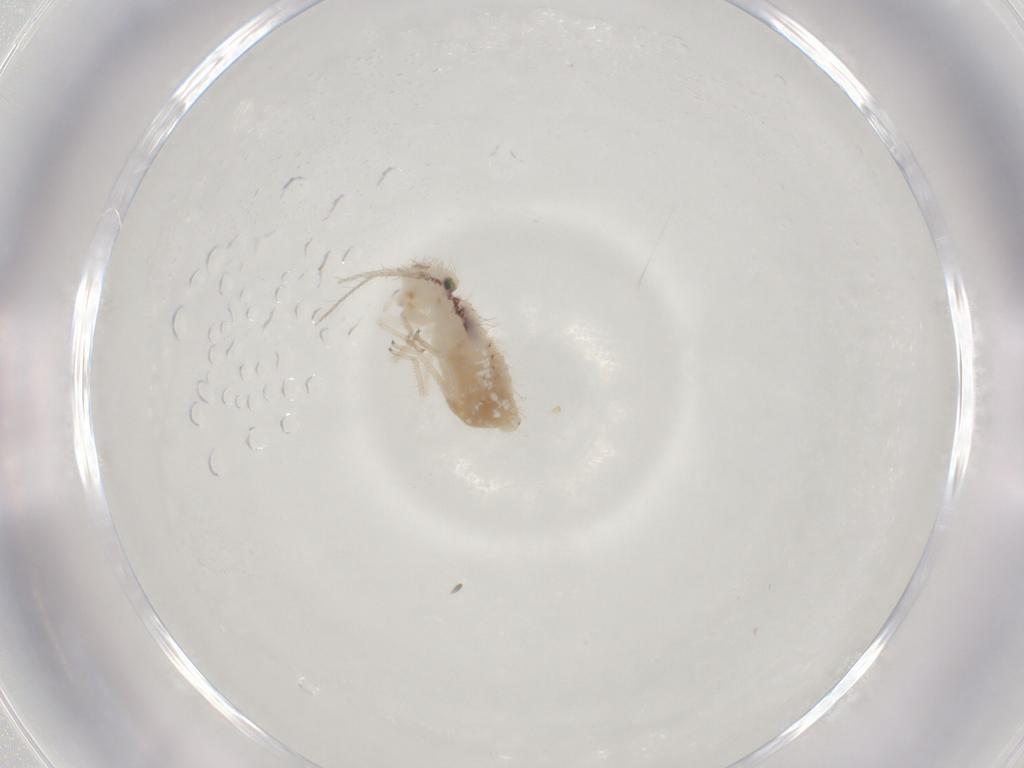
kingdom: Animalia
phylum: Arthropoda
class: Insecta
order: Psocodea
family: Pseudocaeciliidae
